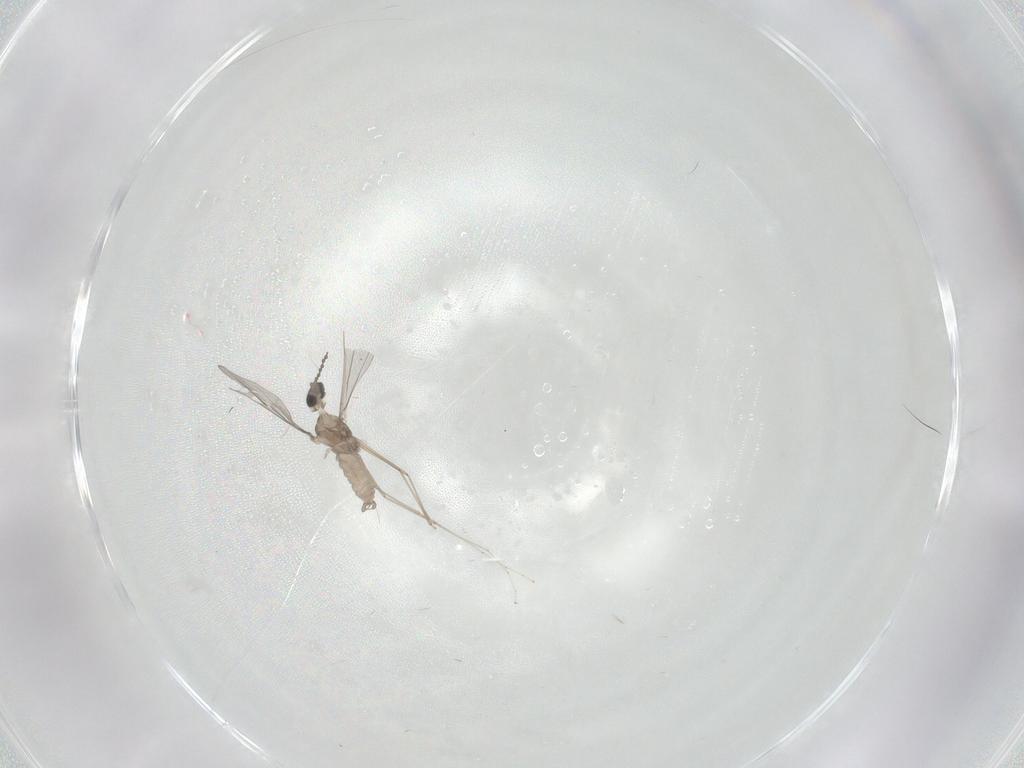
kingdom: Animalia
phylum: Arthropoda
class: Insecta
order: Diptera
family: Cecidomyiidae
